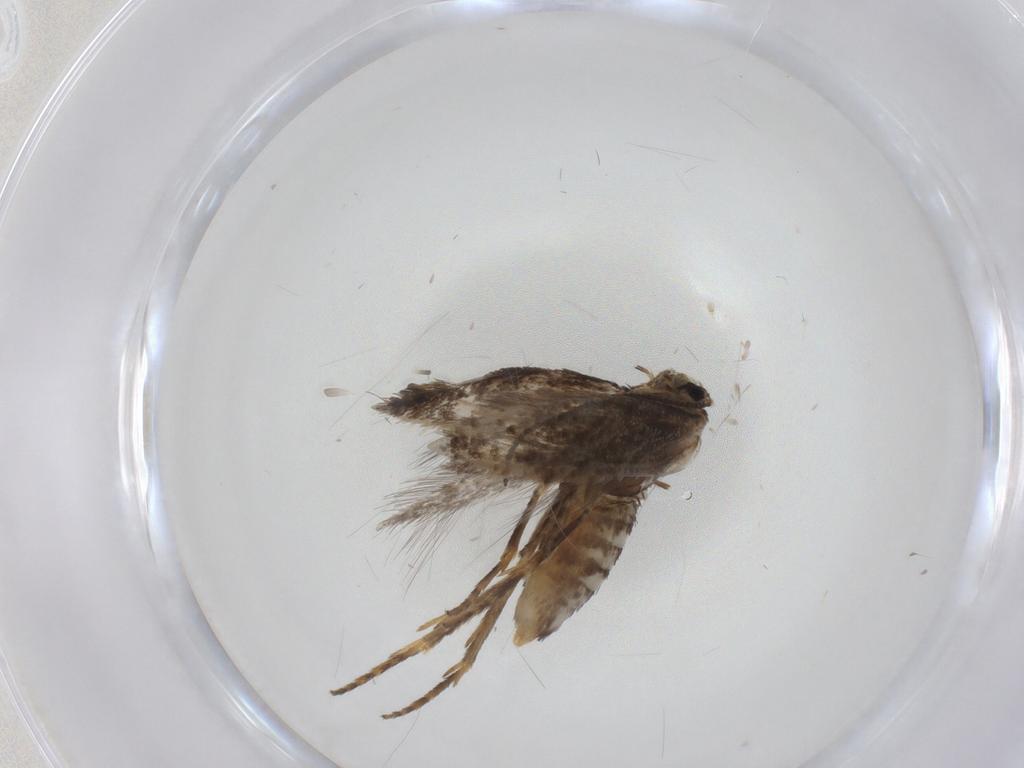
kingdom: Animalia
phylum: Arthropoda
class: Insecta
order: Lepidoptera
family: Nepticulidae
